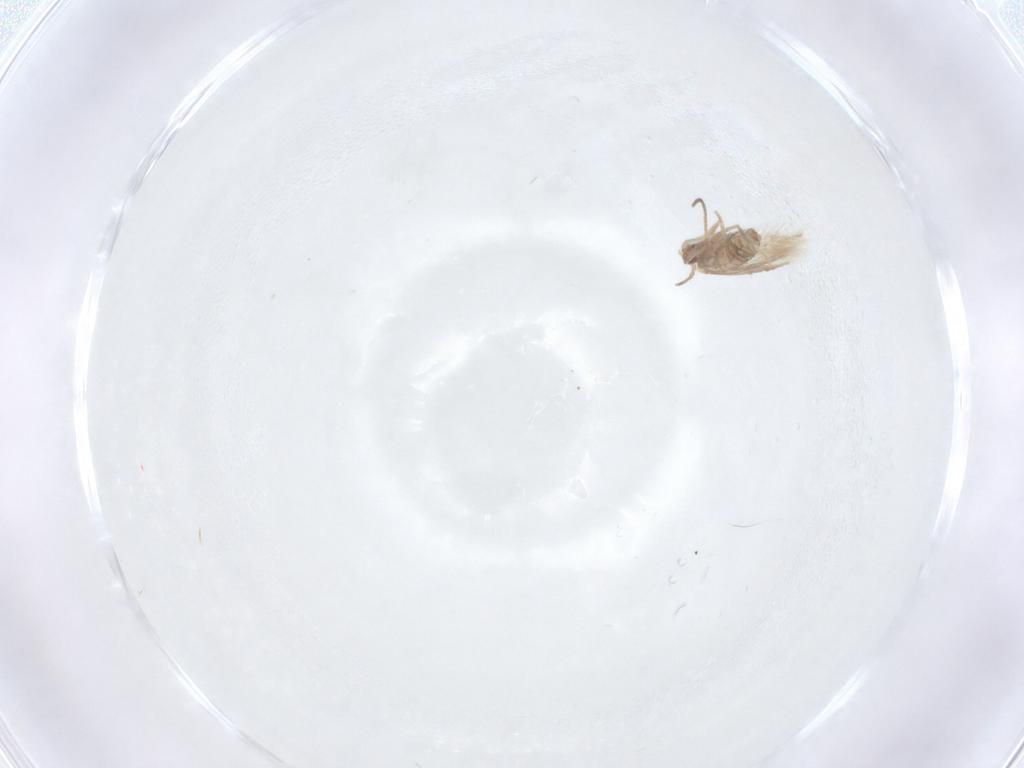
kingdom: Animalia
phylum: Arthropoda
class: Insecta
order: Lepidoptera
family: Nepticulidae
